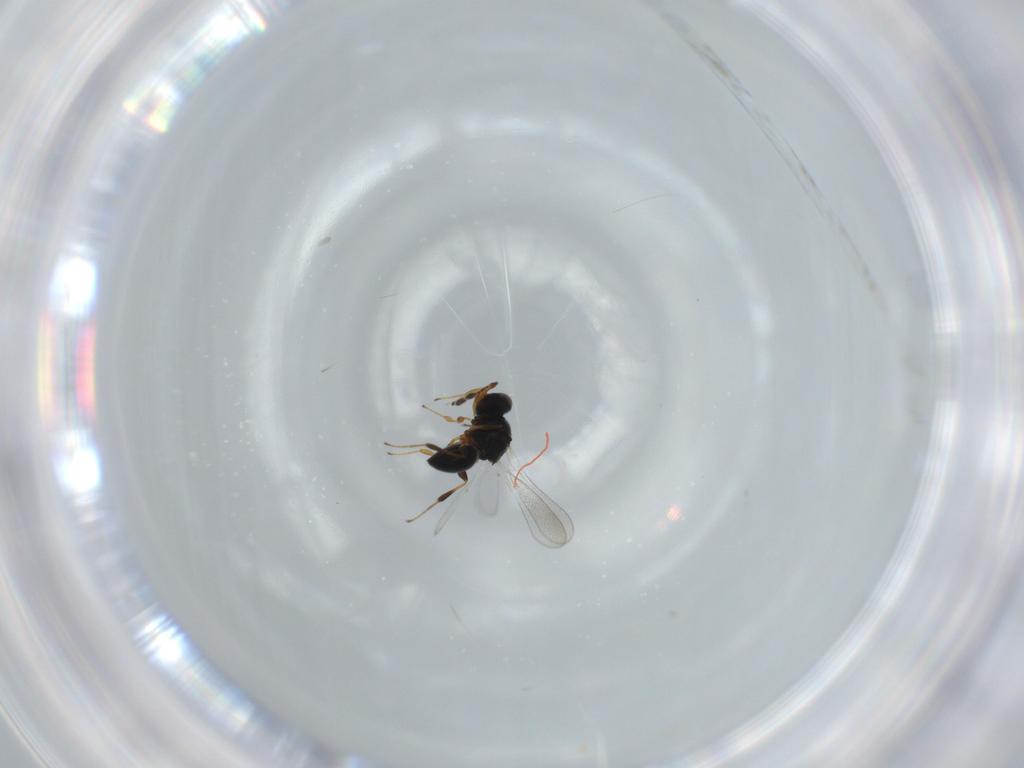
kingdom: Animalia
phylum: Arthropoda
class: Insecta
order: Hymenoptera
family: Platygastridae
